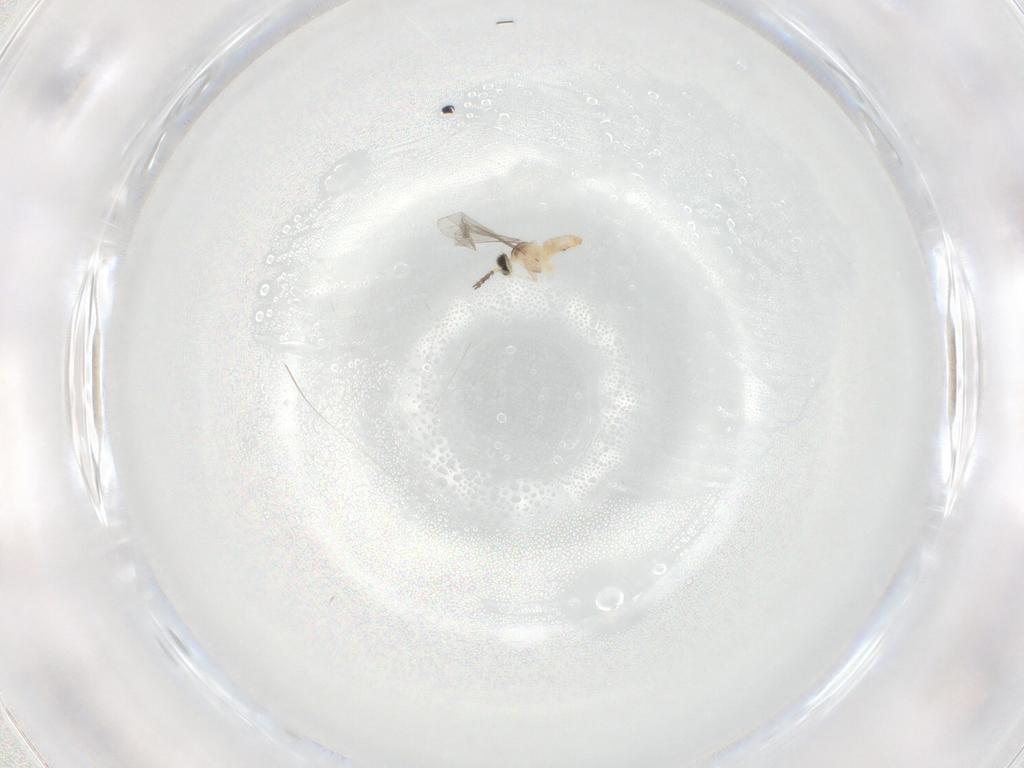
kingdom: Animalia
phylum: Arthropoda
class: Insecta
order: Diptera
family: Cecidomyiidae
